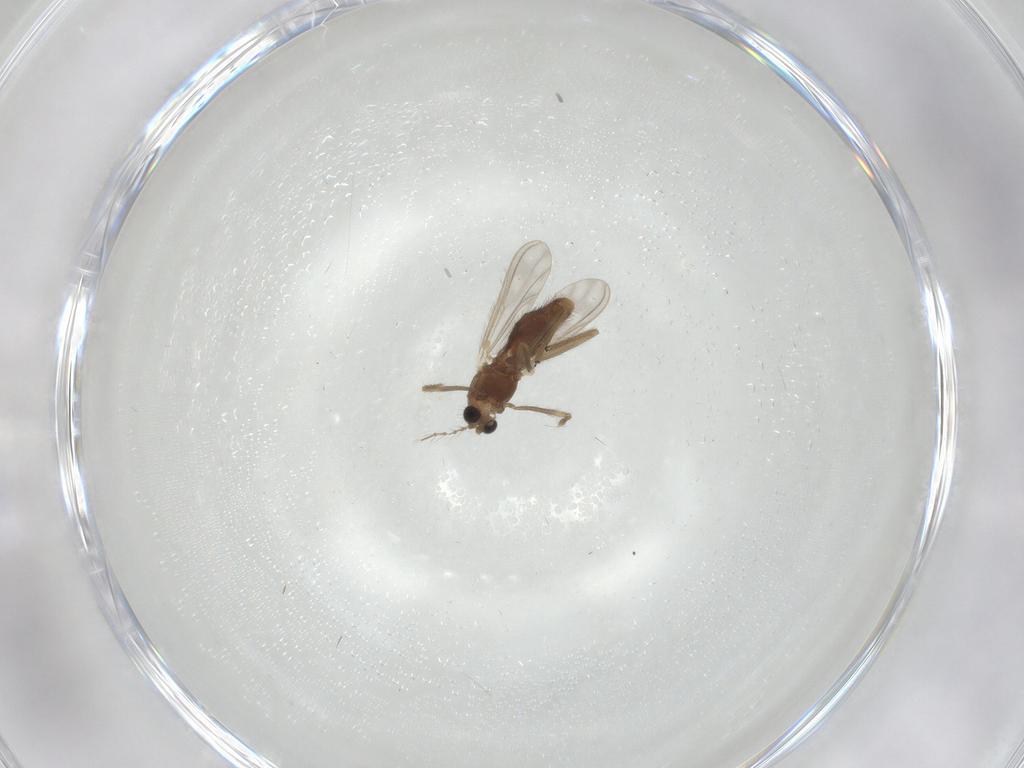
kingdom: Animalia
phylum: Arthropoda
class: Insecta
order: Diptera
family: Chironomidae
